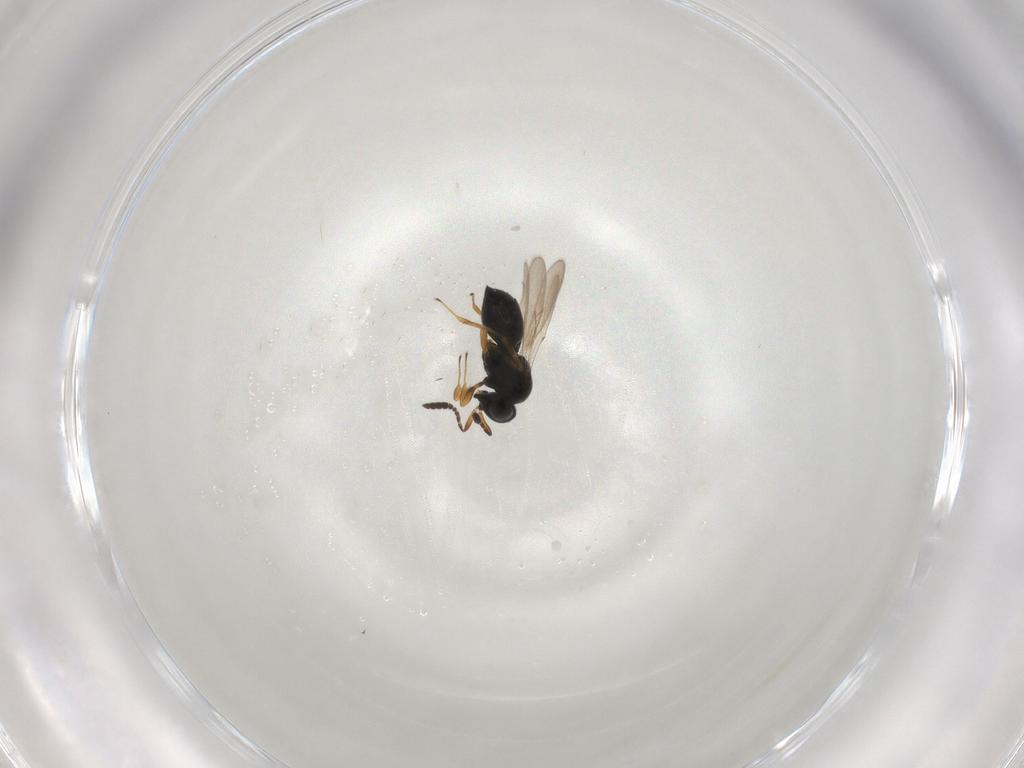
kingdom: Animalia
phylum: Arthropoda
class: Insecta
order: Hymenoptera
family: Scelionidae
